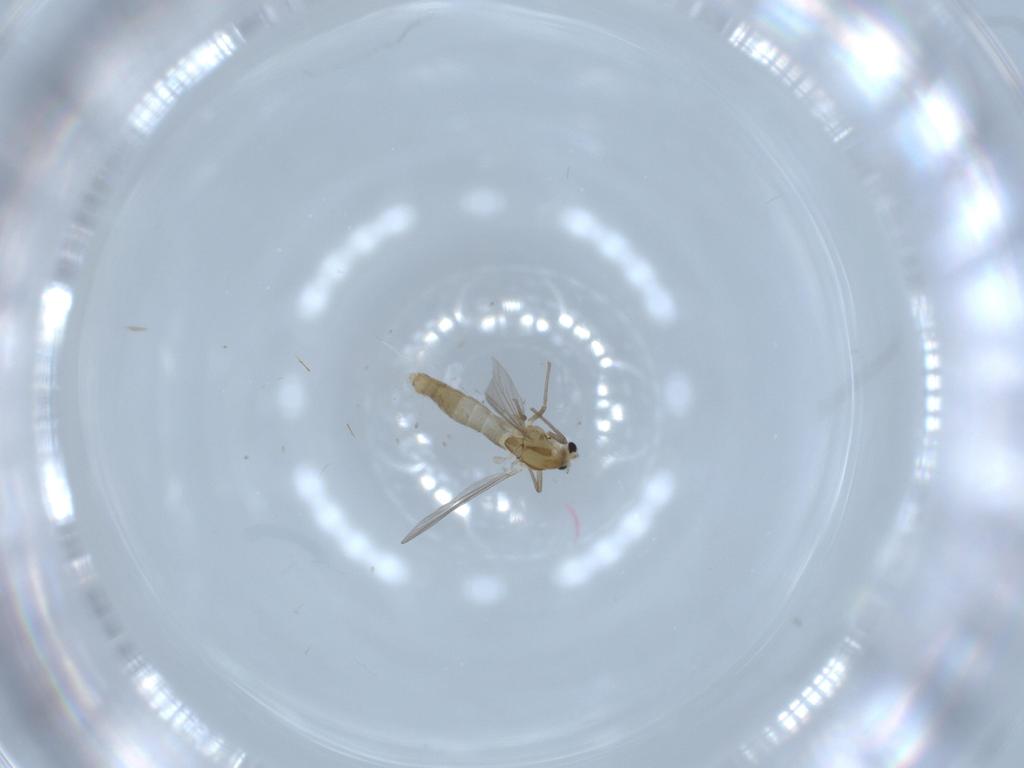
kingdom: Animalia
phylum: Arthropoda
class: Insecta
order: Diptera
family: Chironomidae
